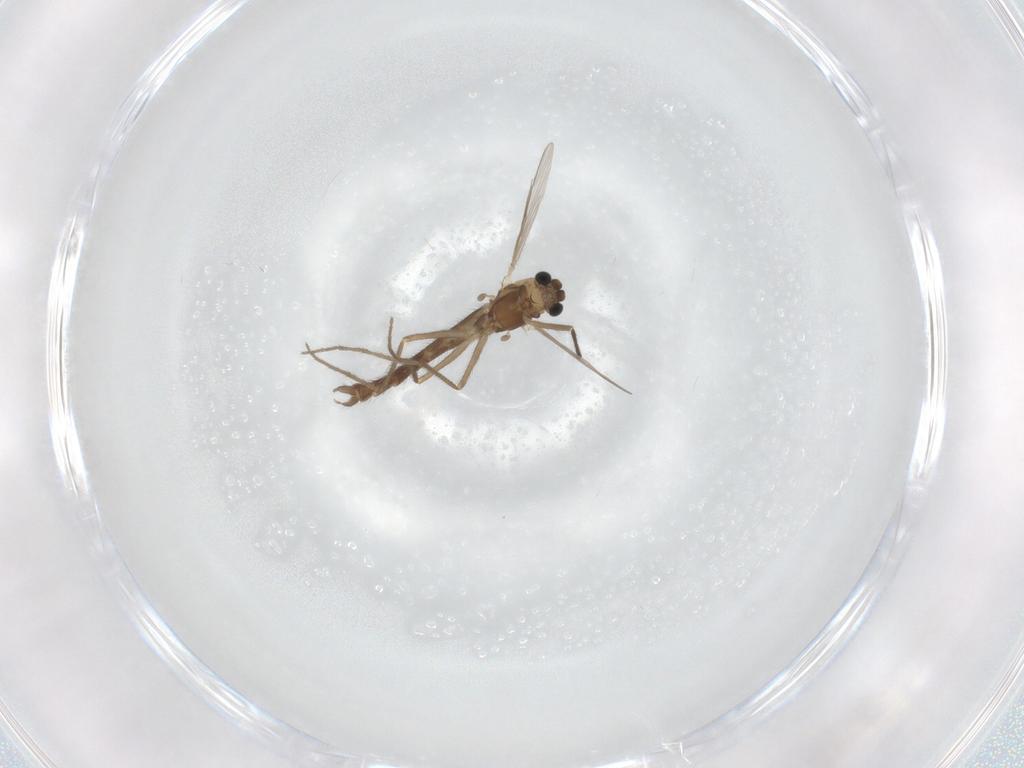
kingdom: Animalia
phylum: Arthropoda
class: Insecta
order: Diptera
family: Chironomidae
